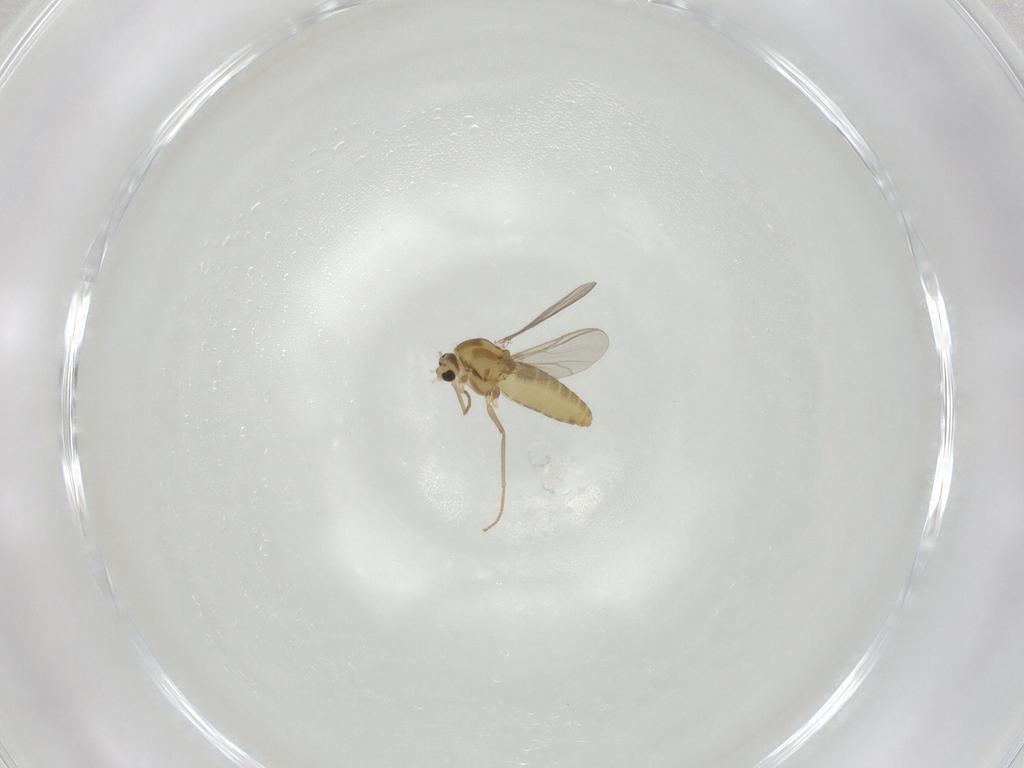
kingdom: Animalia
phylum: Arthropoda
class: Insecta
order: Diptera
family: Chironomidae
